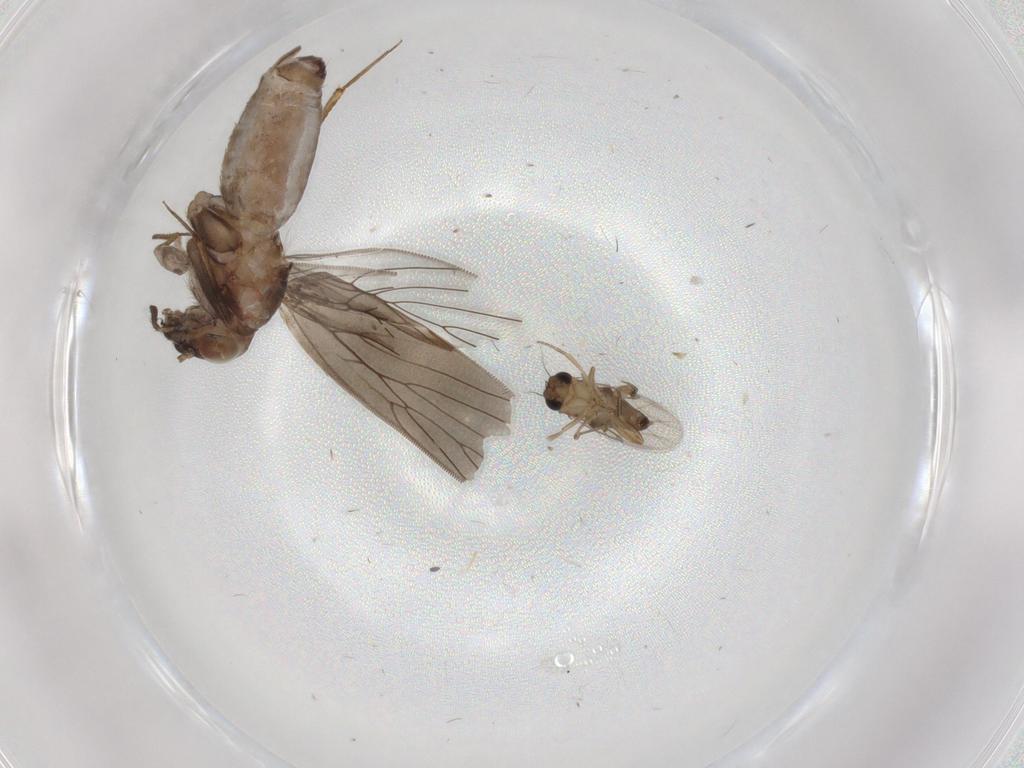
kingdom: Animalia
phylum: Arthropoda
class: Insecta
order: Psocodea
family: Lepidopsocidae
